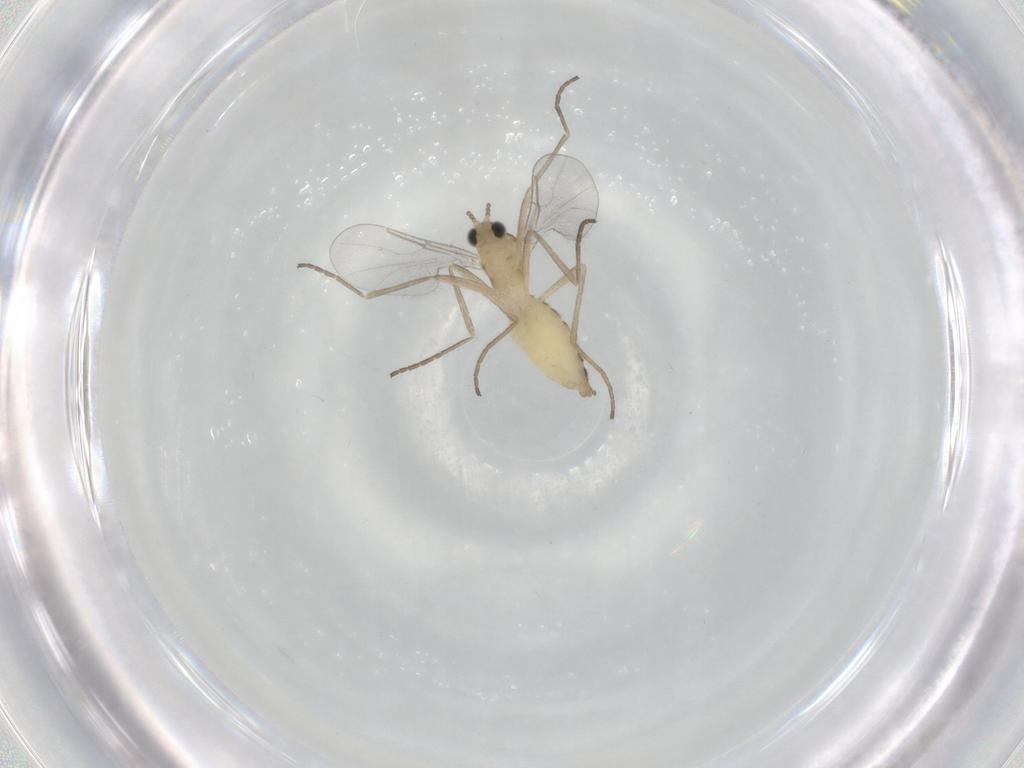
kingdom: Animalia
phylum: Arthropoda
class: Insecta
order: Diptera
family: Cecidomyiidae
